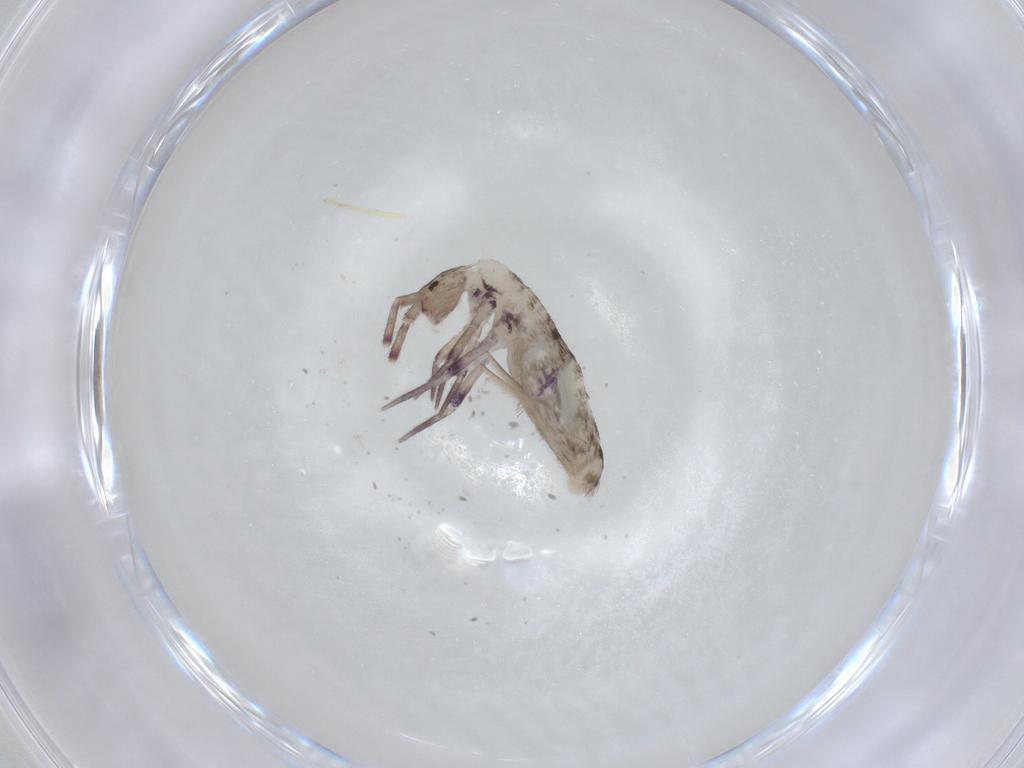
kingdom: Animalia
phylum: Arthropoda
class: Collembola
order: Entomobryomorpha
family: Entomobryidae
